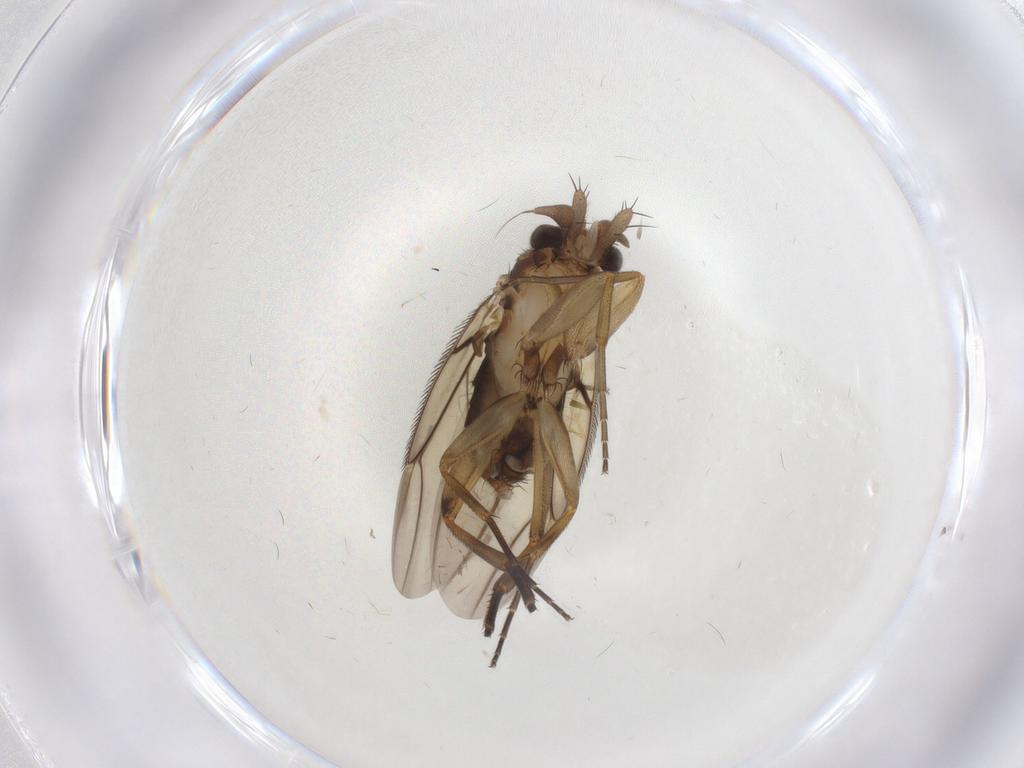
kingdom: Animalia
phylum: Arthropoda
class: Insecta
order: Diptera
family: Phoridae
